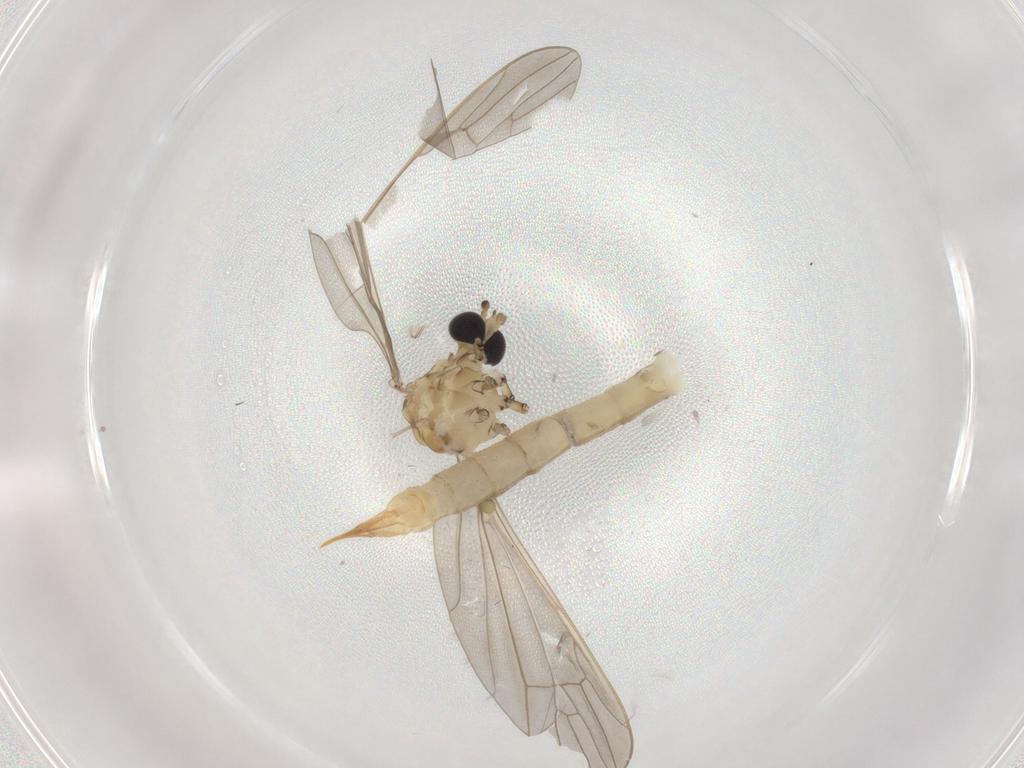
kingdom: Animalia
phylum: Arthropoda
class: Insecta
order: Diptera
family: Limoniidae
